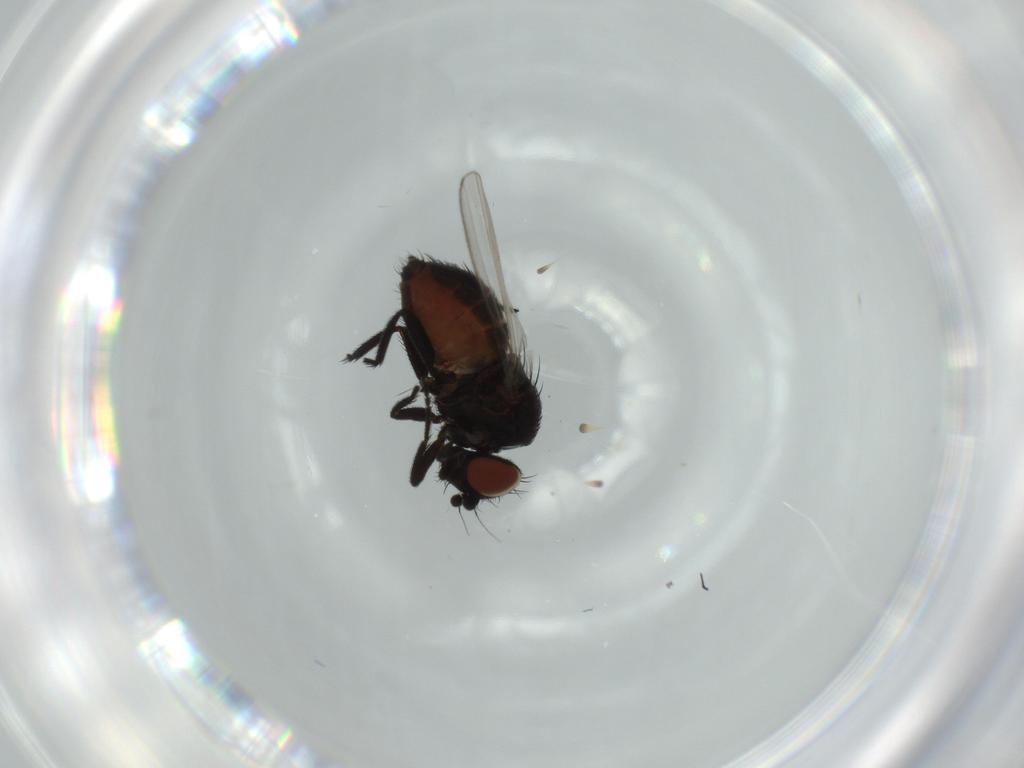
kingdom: Animalia
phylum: Arthropoda
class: Insecta
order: Diptera
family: Milichiidae
